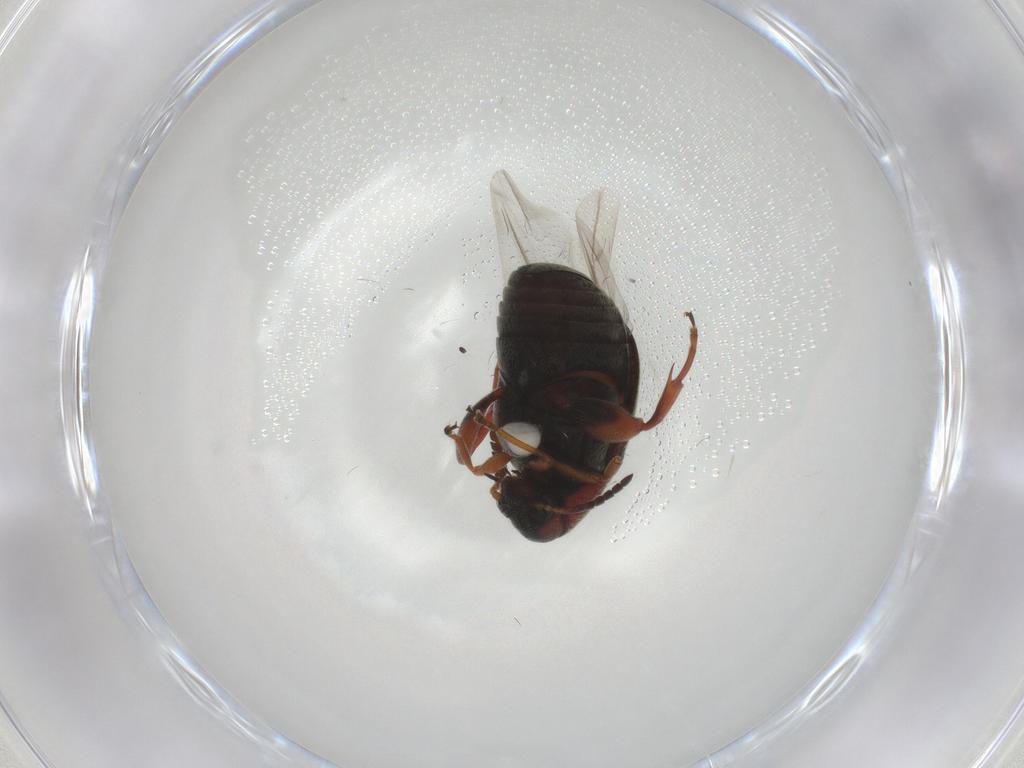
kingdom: Animalia
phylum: Arthropoda
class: Insecta
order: Coleoptera
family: Chrysomelidae
